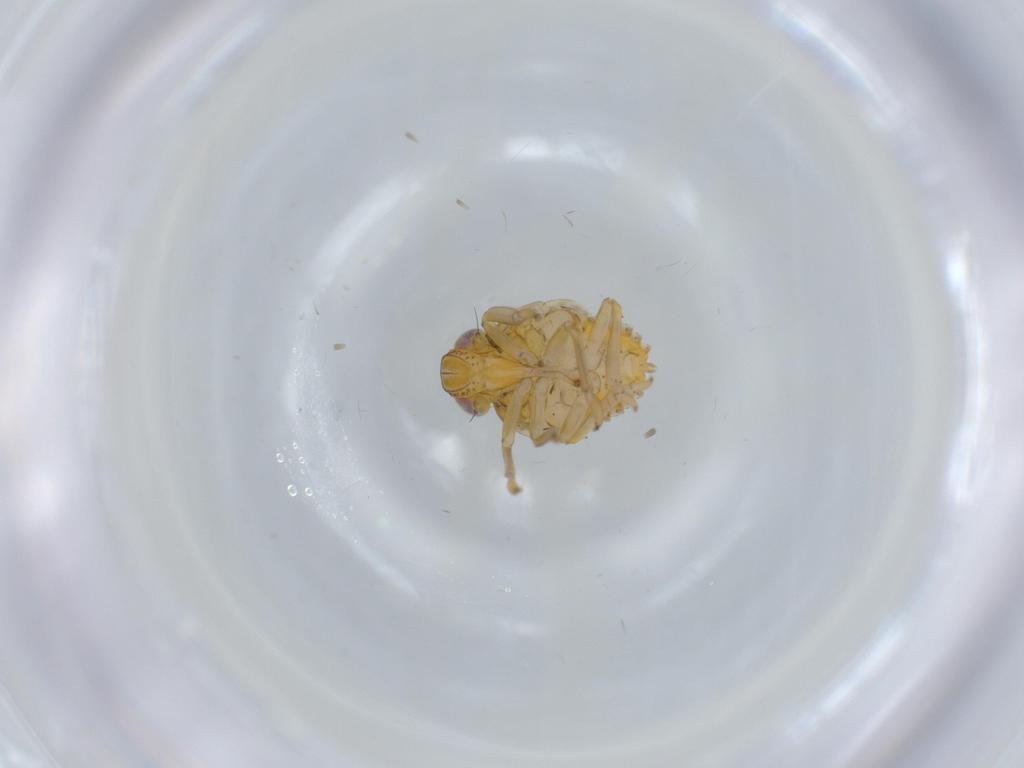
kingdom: Animalia
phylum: Arthropoda
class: Insecta
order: Hemiptera
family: Issidae
